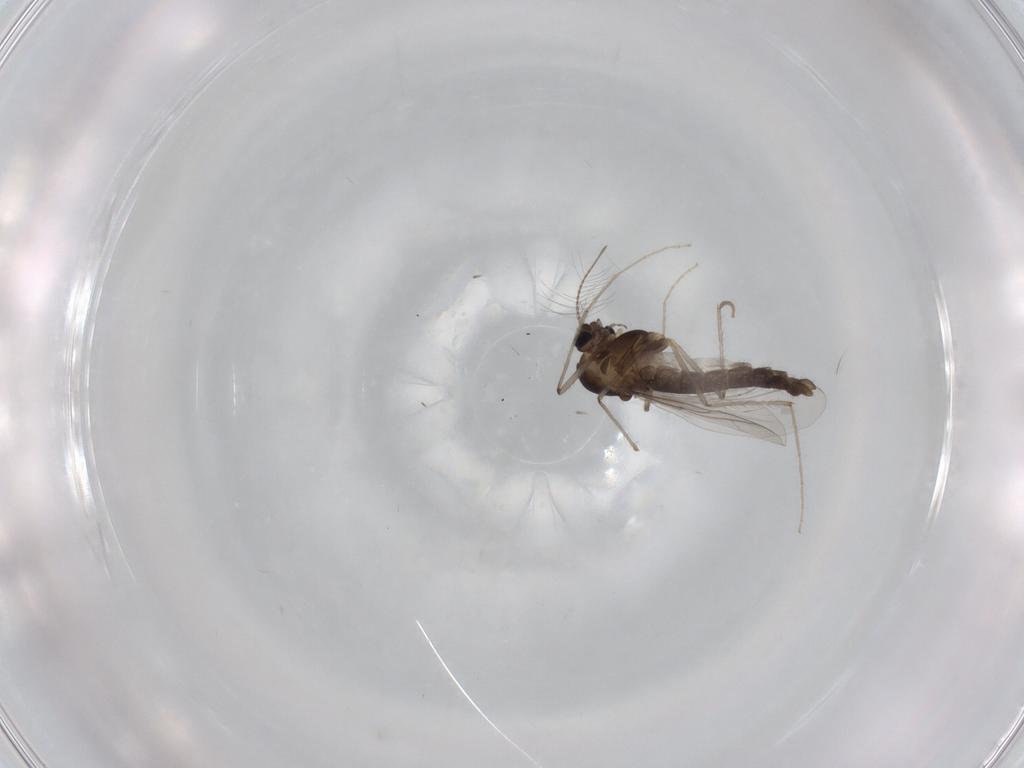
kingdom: Animalia
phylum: Arthropoda
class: Insecta
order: Diptera
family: Chironomidae
